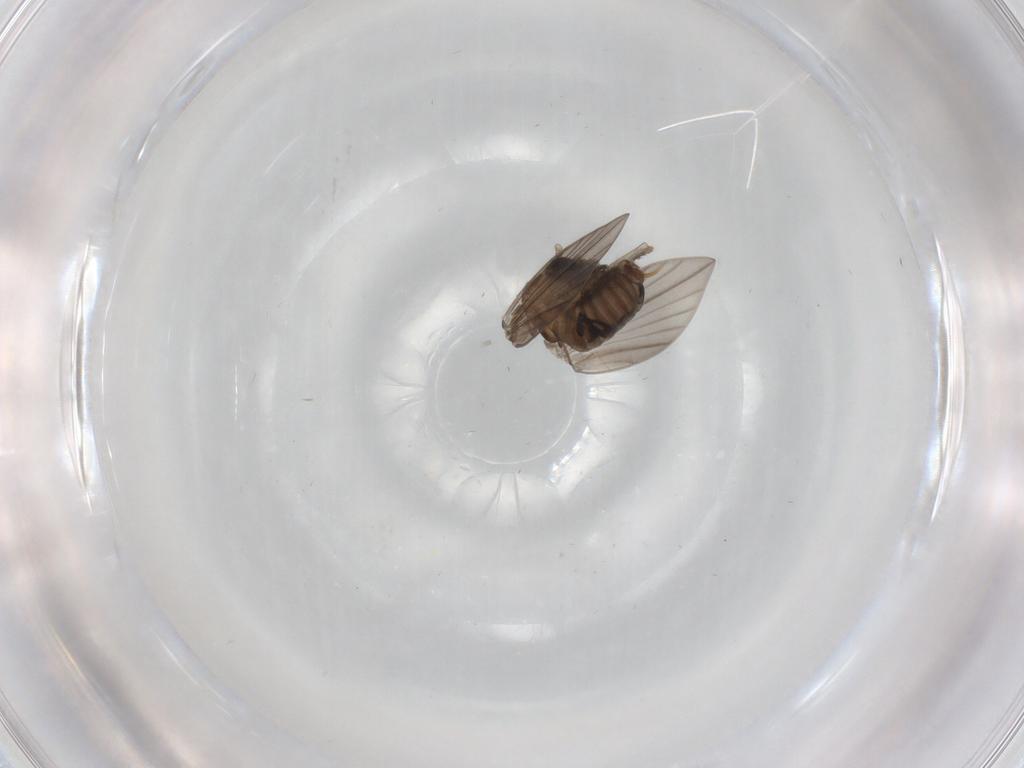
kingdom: Animalia
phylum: Arthropoda
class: Insecta
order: Diptera
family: Psychodidae
